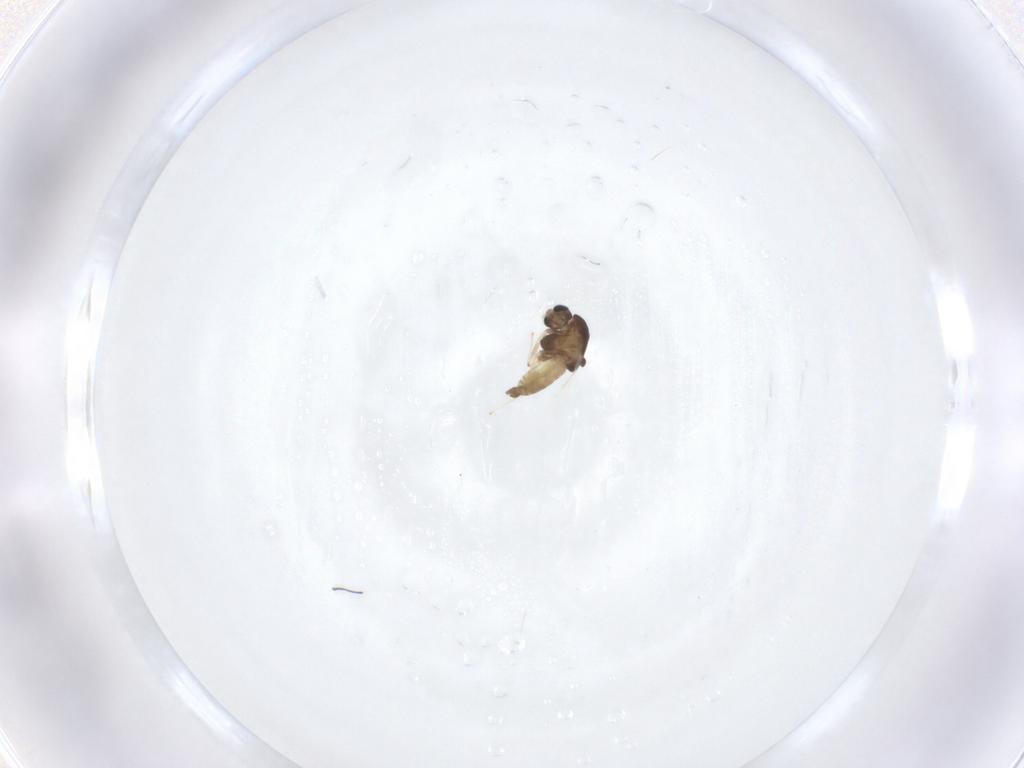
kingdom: Animalia
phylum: Arthropoda
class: Insecta
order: Diptera
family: Chironomidae
